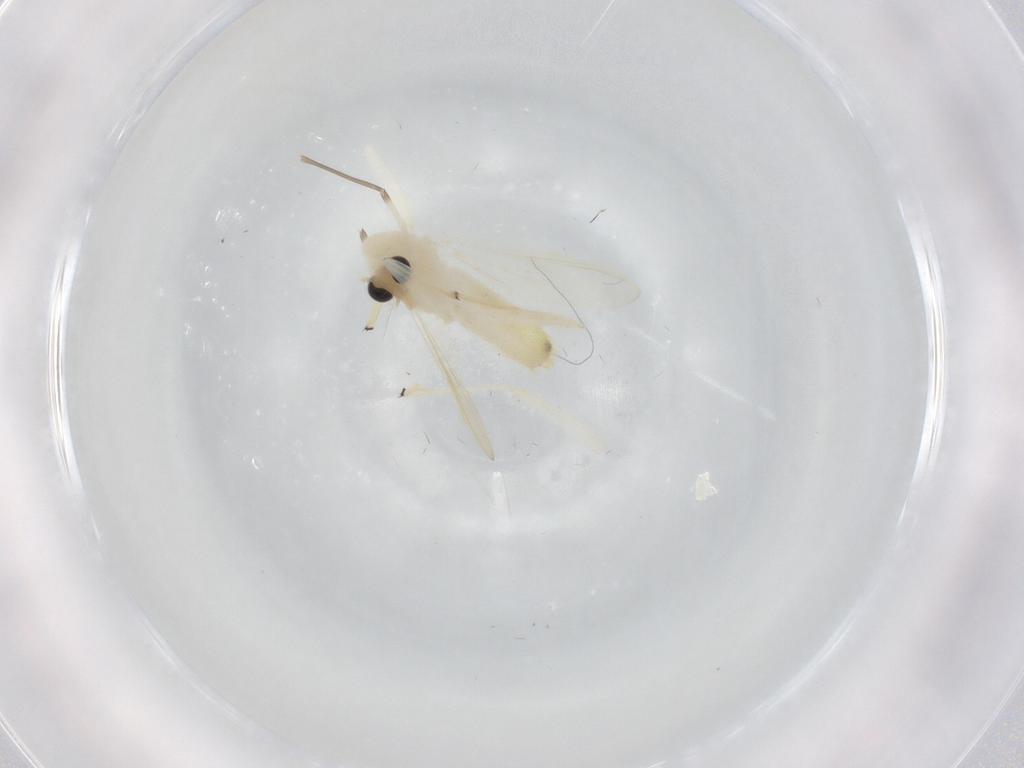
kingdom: Animalia
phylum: Arthropoda
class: Insecta
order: Diptera
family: Chironomidae
